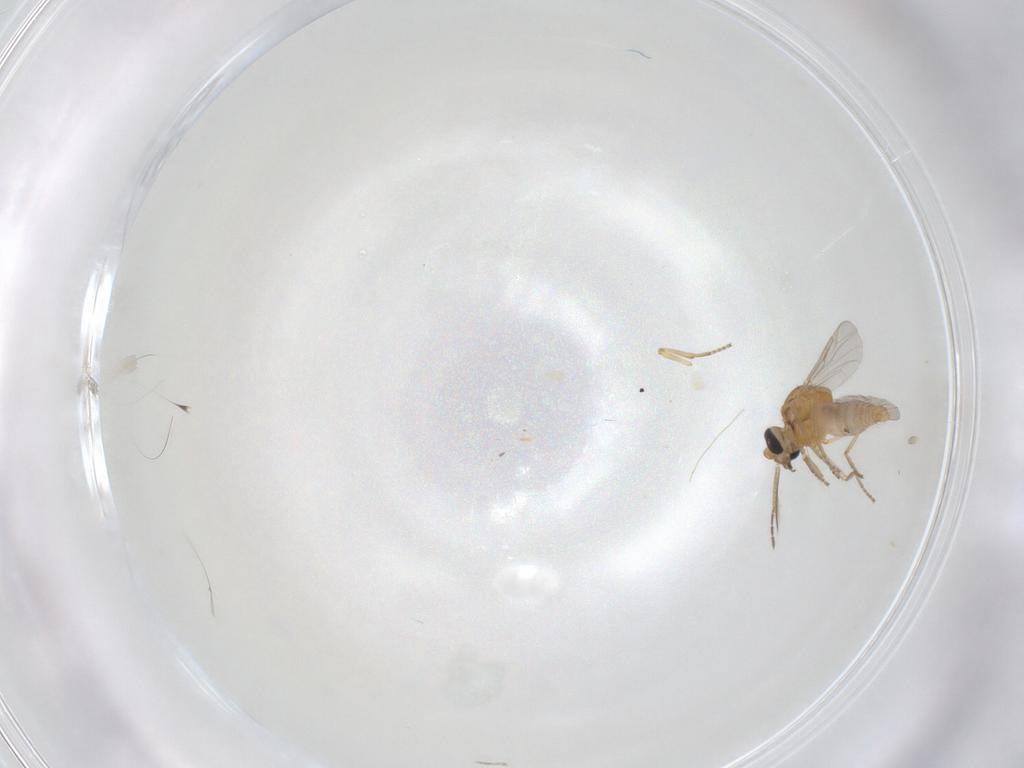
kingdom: Animalia
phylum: Arthropoda
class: Insecta
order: Diptera
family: Ceratopogonidae
